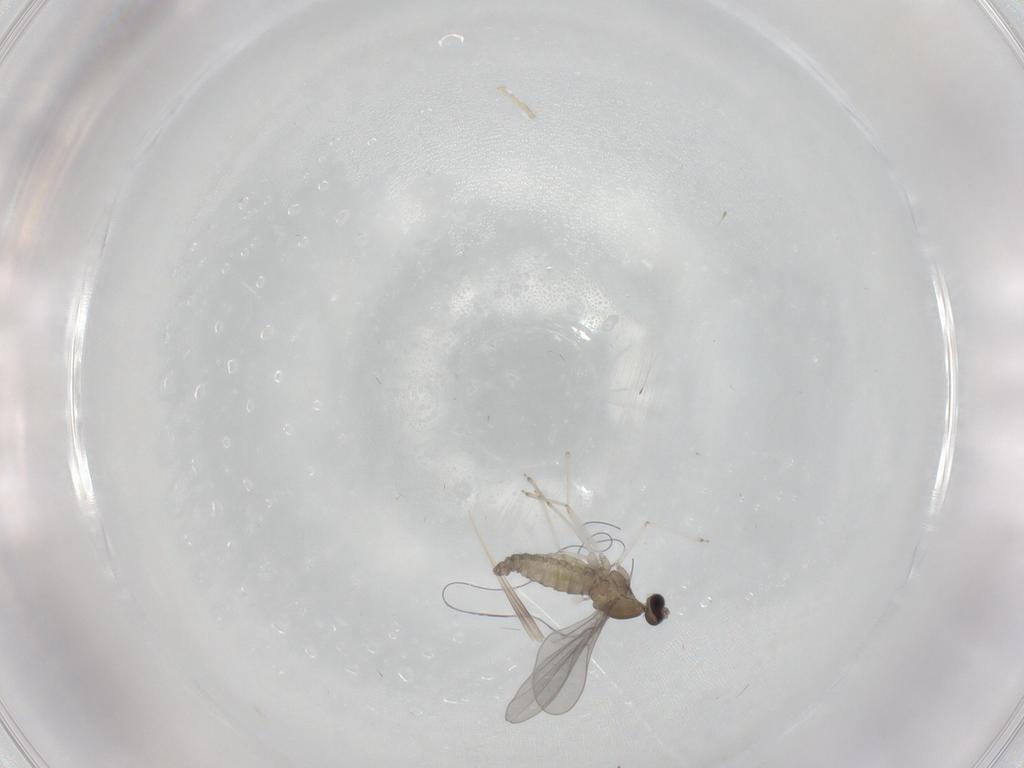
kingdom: Animalia
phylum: Arthropoda
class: Insecta
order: Diptera
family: Cecidomyiidae
